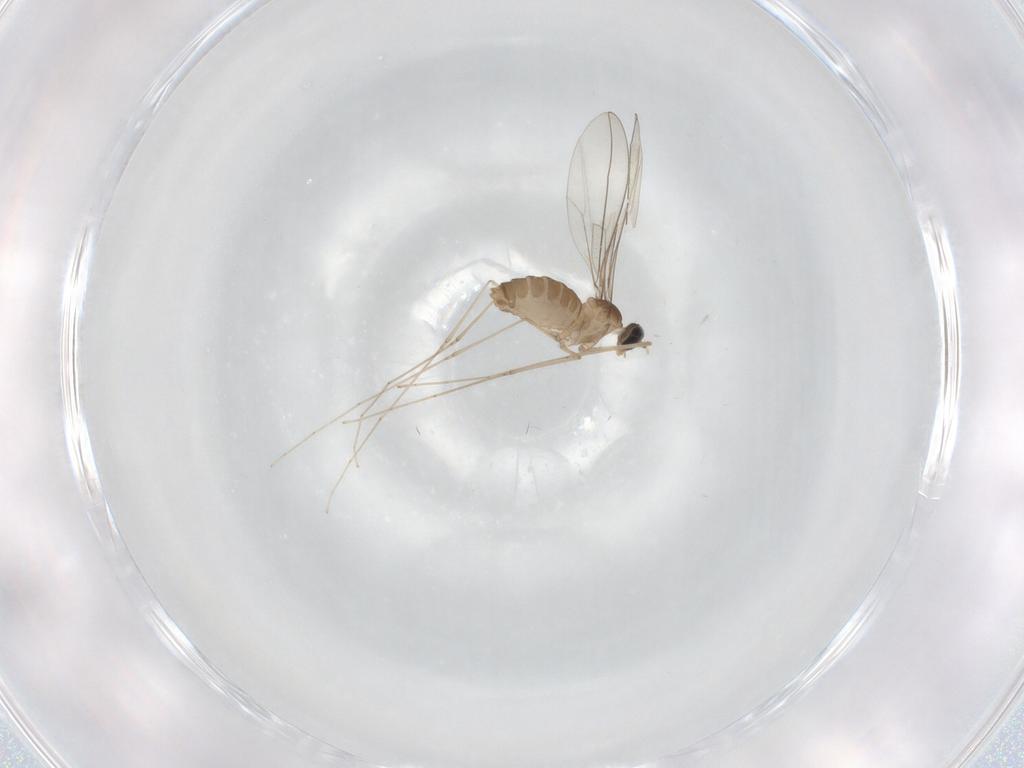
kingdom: Animalia
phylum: Arthropoda
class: Insecta
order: Diptera
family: Cecidomyiidae
